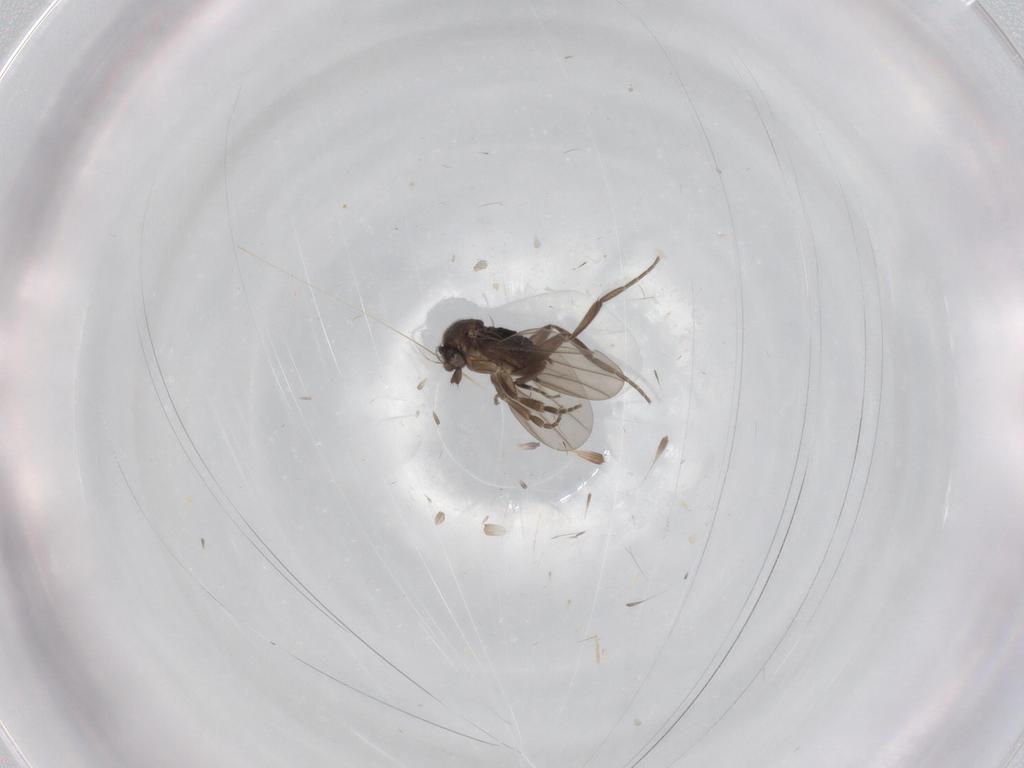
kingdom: Animalia
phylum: Arthropoda
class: Insecta
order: Diptera
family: Phoridae
